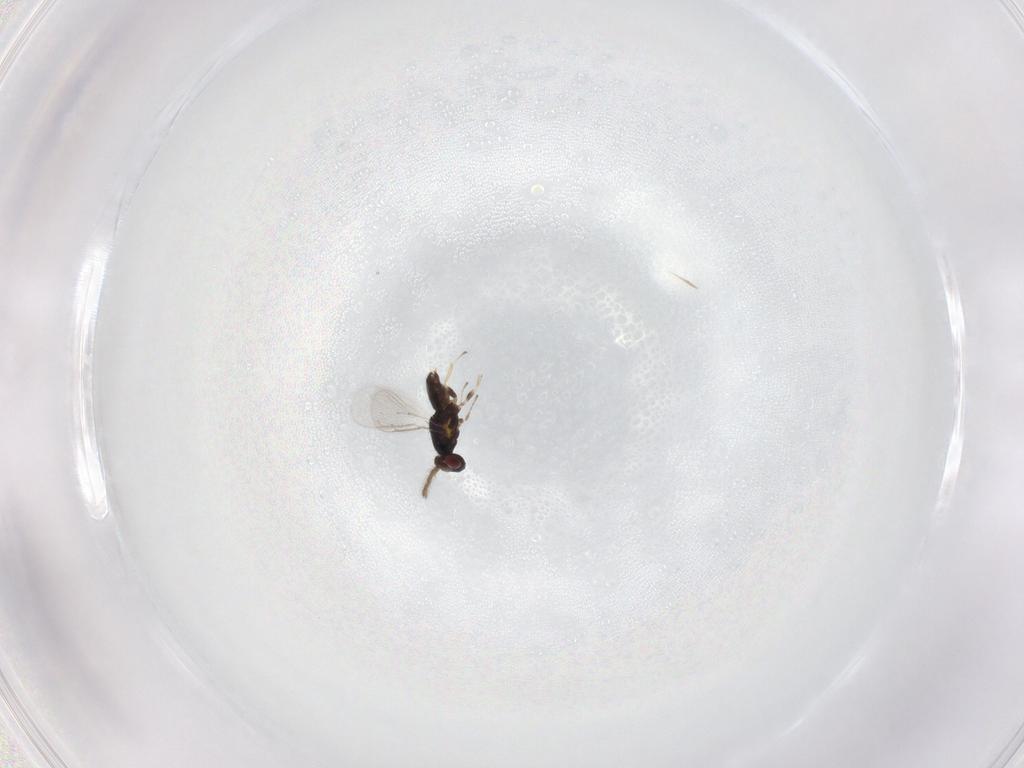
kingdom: Animalia
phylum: Arthropoda
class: Insecta
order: Hymenoptera
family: Eulophidae
